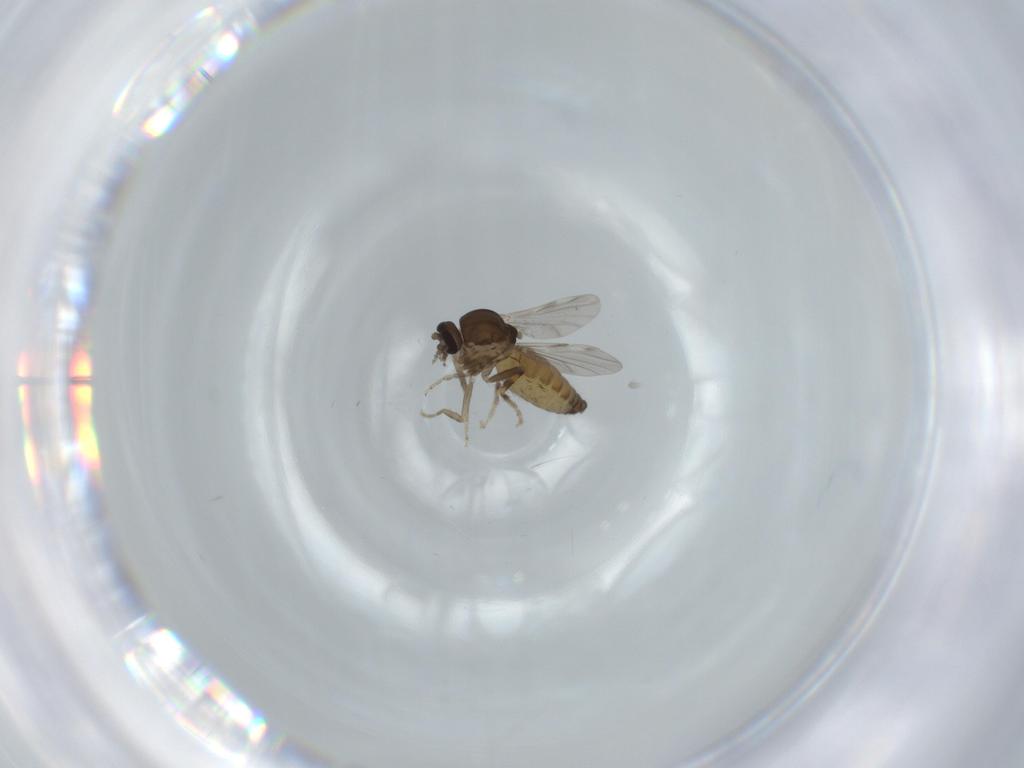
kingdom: Animalia
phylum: Arthropoda
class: Insecta
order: Diptera
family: Ceratopogonidae
